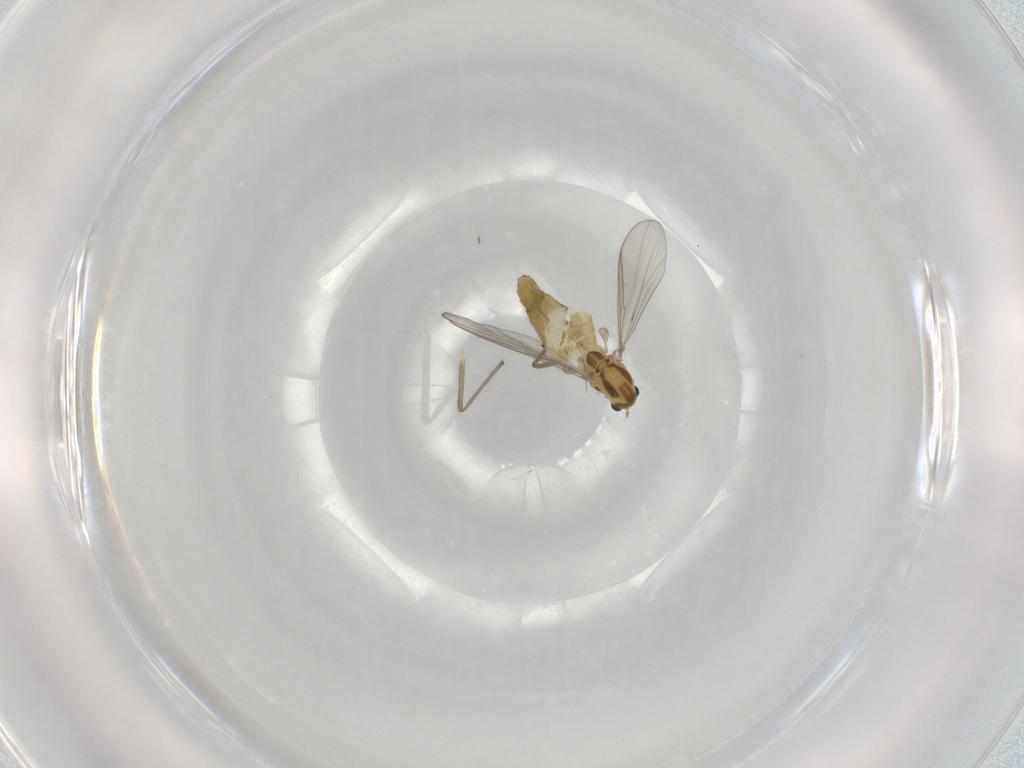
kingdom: Animalia
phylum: Arthropoda
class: Insecta
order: Diptera
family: Chironomidae
